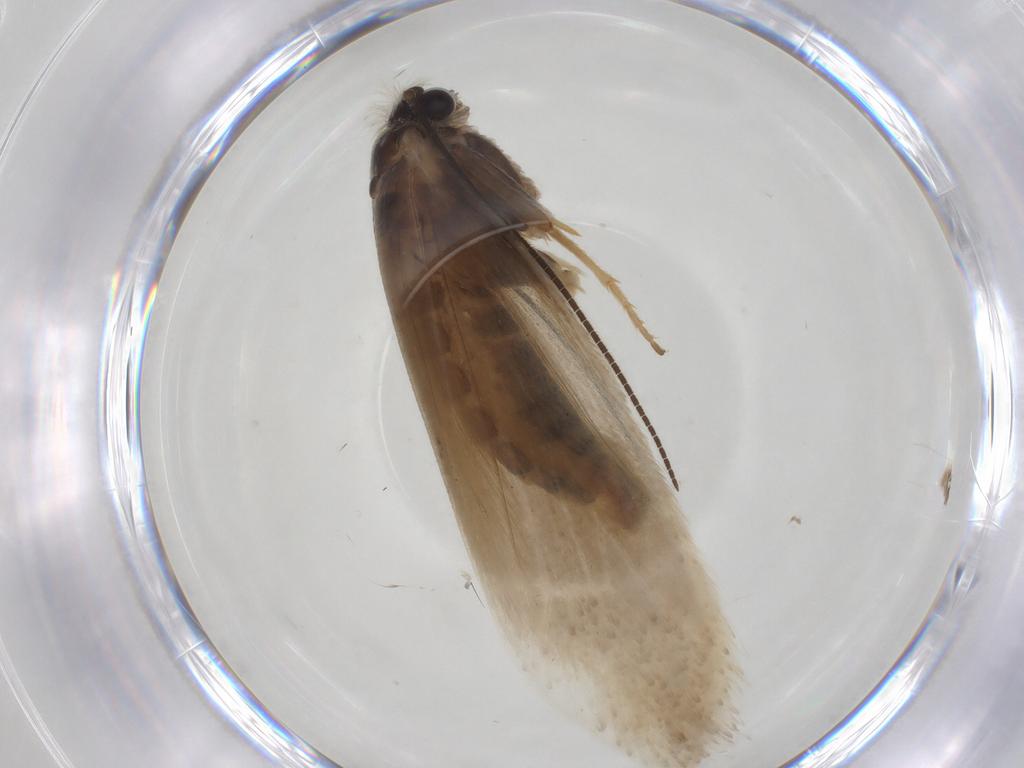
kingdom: Animalia
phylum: Arthropoda
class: Insecta
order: Lepidoptera
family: Tridentaformidae
